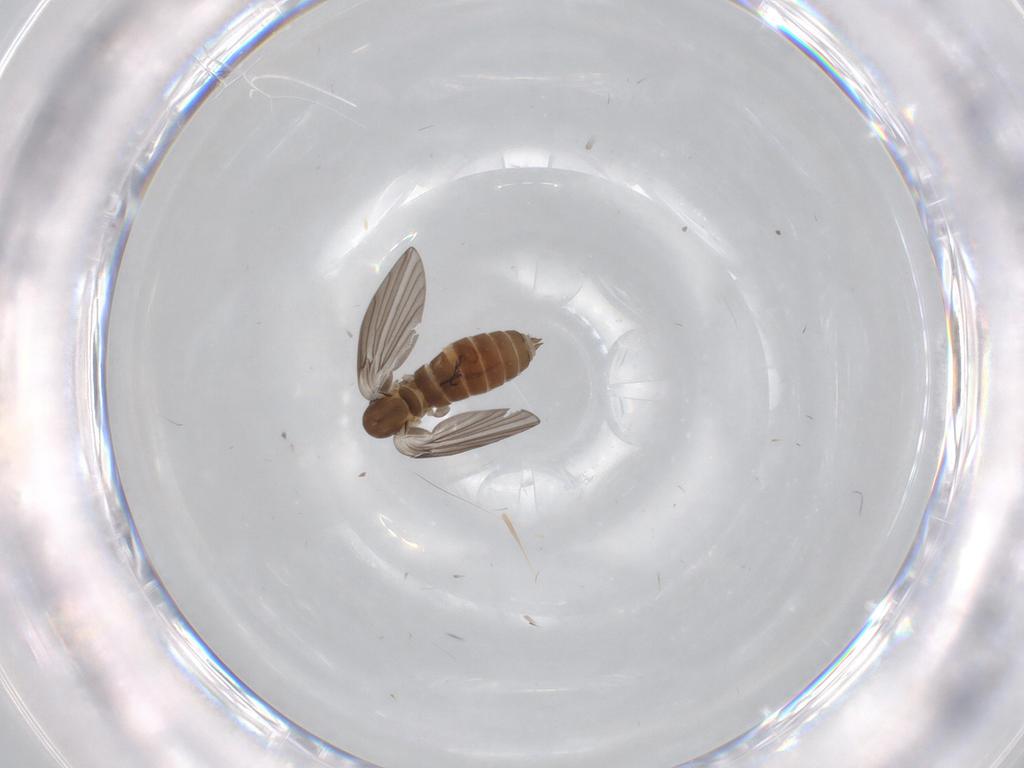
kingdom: Animalia
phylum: Arthropoda
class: Insecta
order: Diptera
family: Psychodidae
